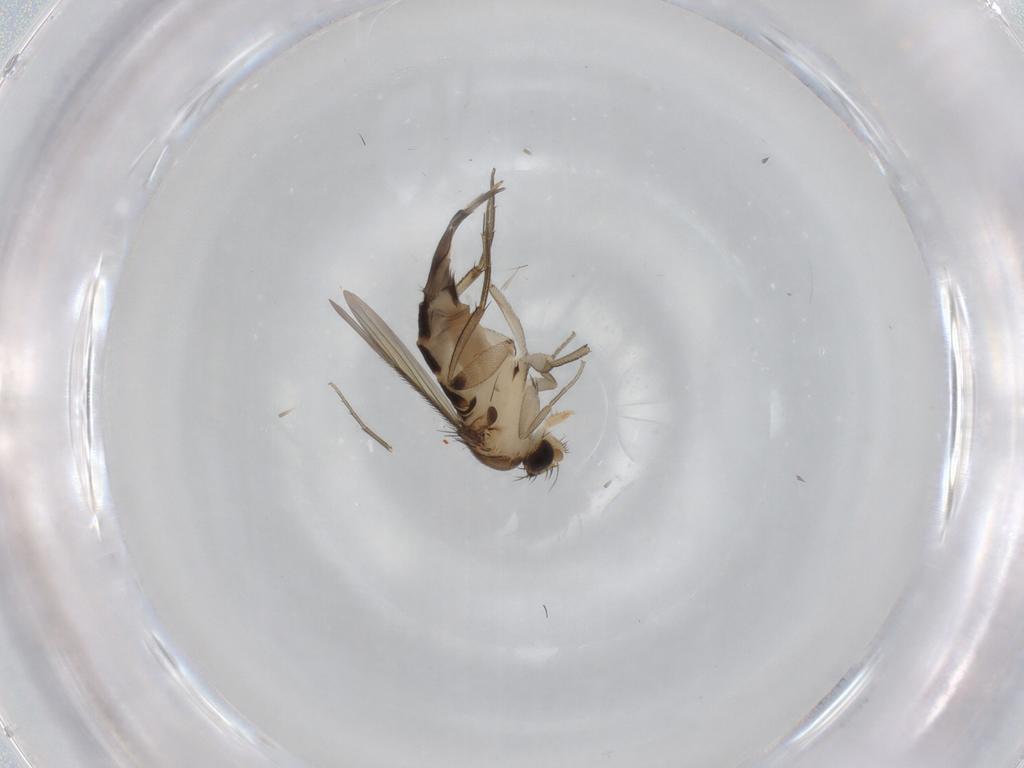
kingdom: Animalia
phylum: Arthropoda
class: Insecta
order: Diptera
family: Phoridae
